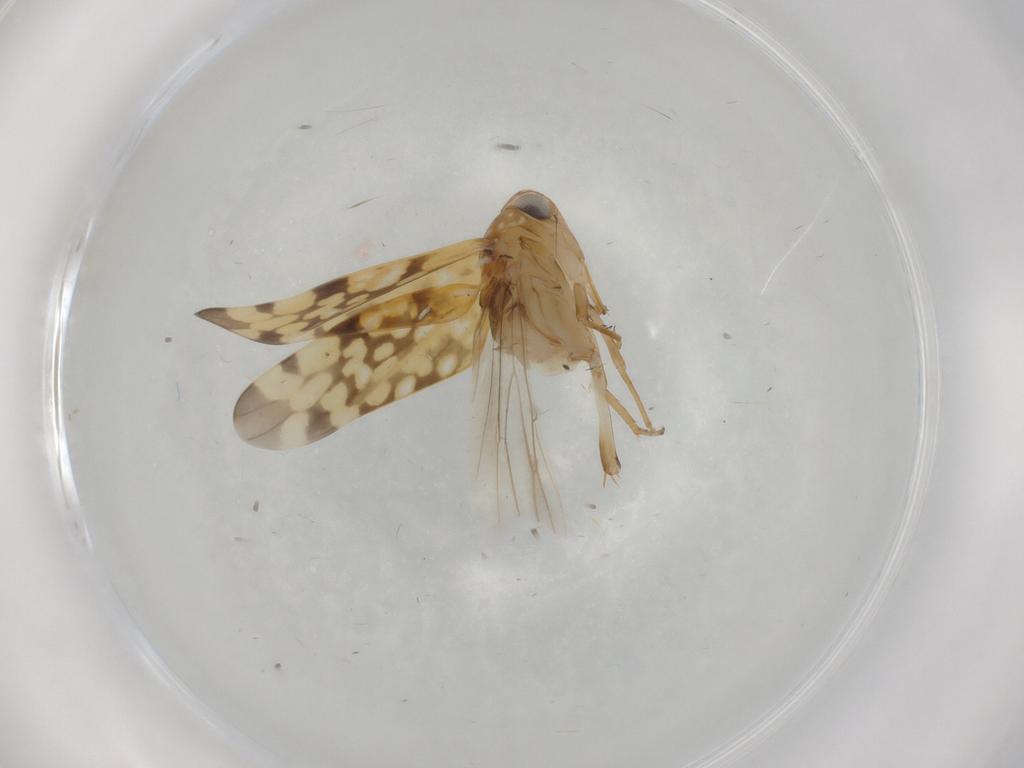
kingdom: Animalia
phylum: Arthropoda
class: Insecta
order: Hemiptera
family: Cicadellidae
